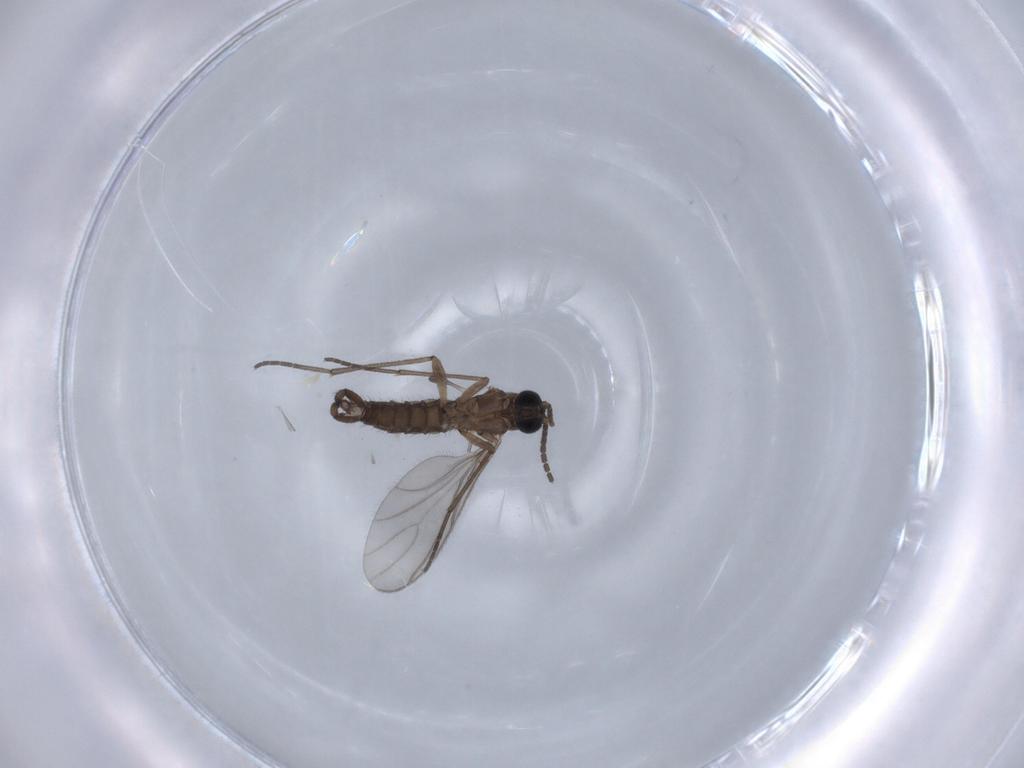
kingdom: Animalia
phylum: Arthropoda
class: Insecta
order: Diptera
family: Sciaridae
